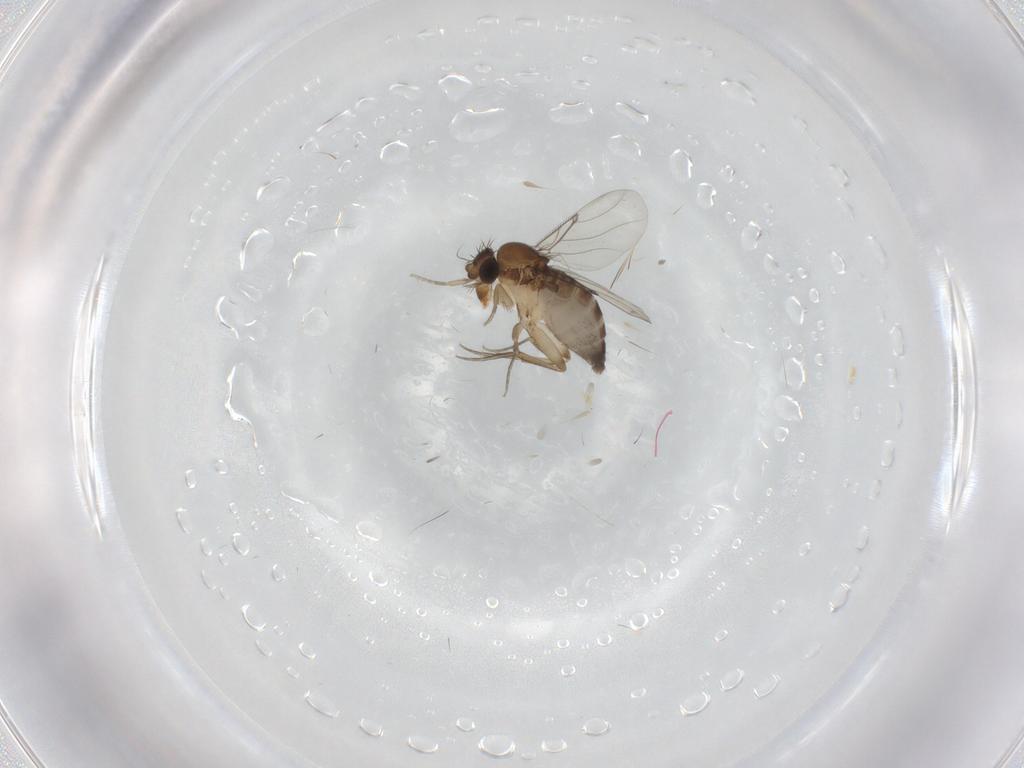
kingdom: Animalia
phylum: Arthropoda
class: Insecta
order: Diptera
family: Phoridae
